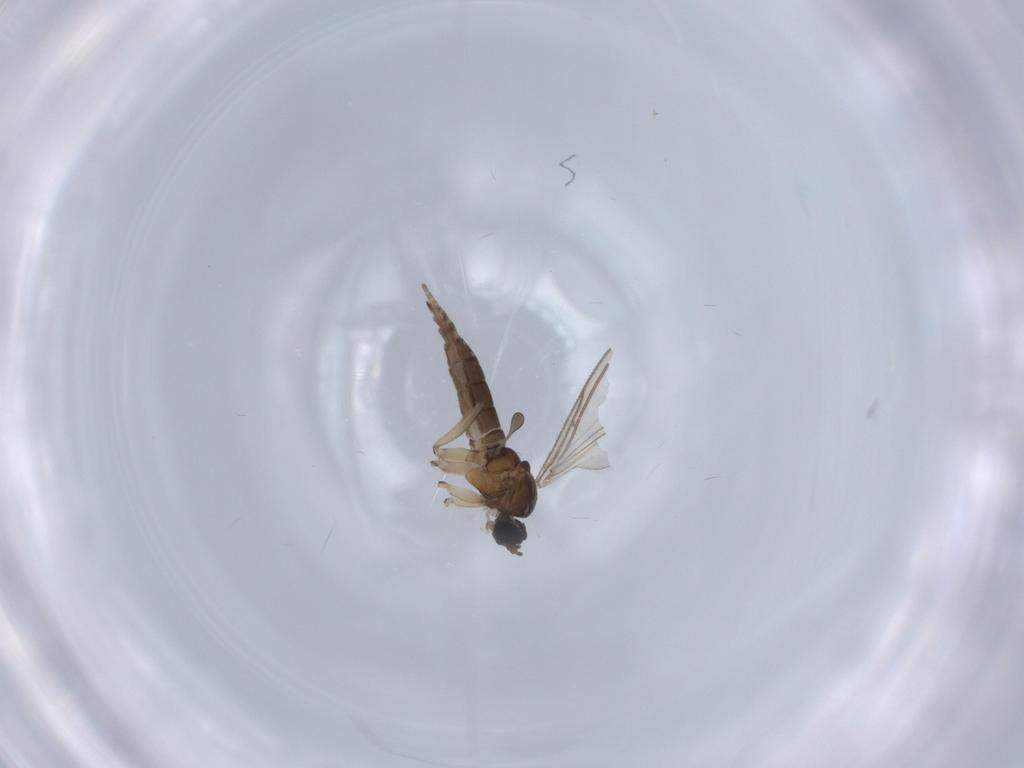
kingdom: Animalia
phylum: Arthropoda
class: Insecta
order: Diptera
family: Sciaridae
